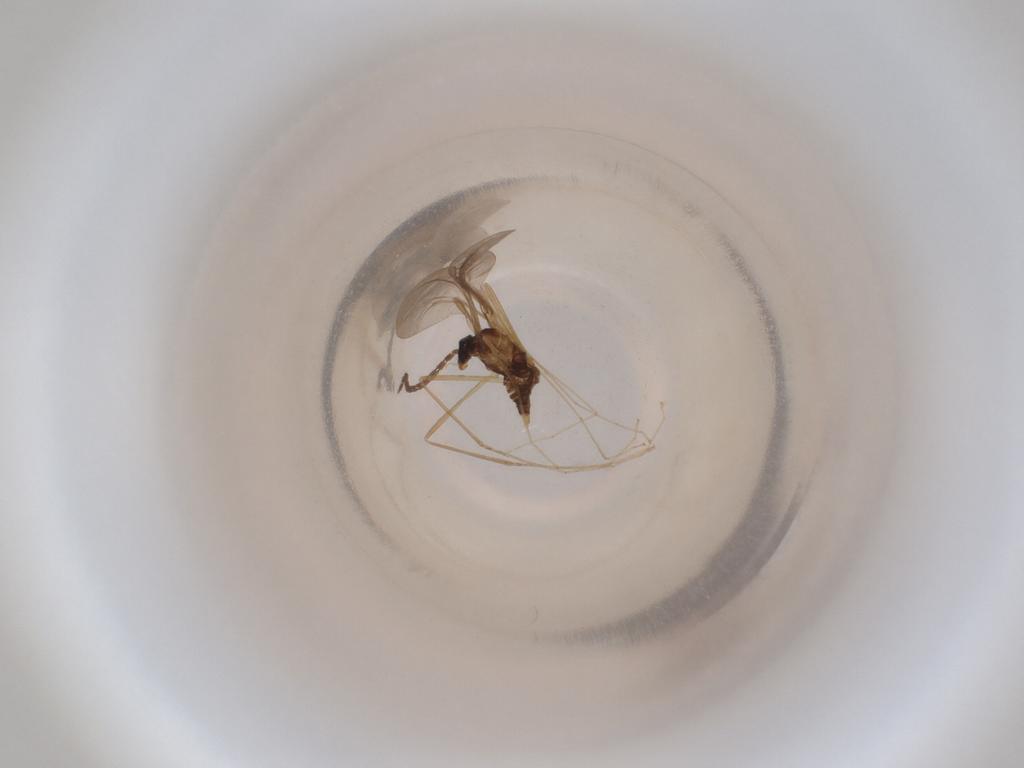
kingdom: Animalia
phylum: Arthropoda
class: Insecta
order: Diptera
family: Cecidomyiidae
